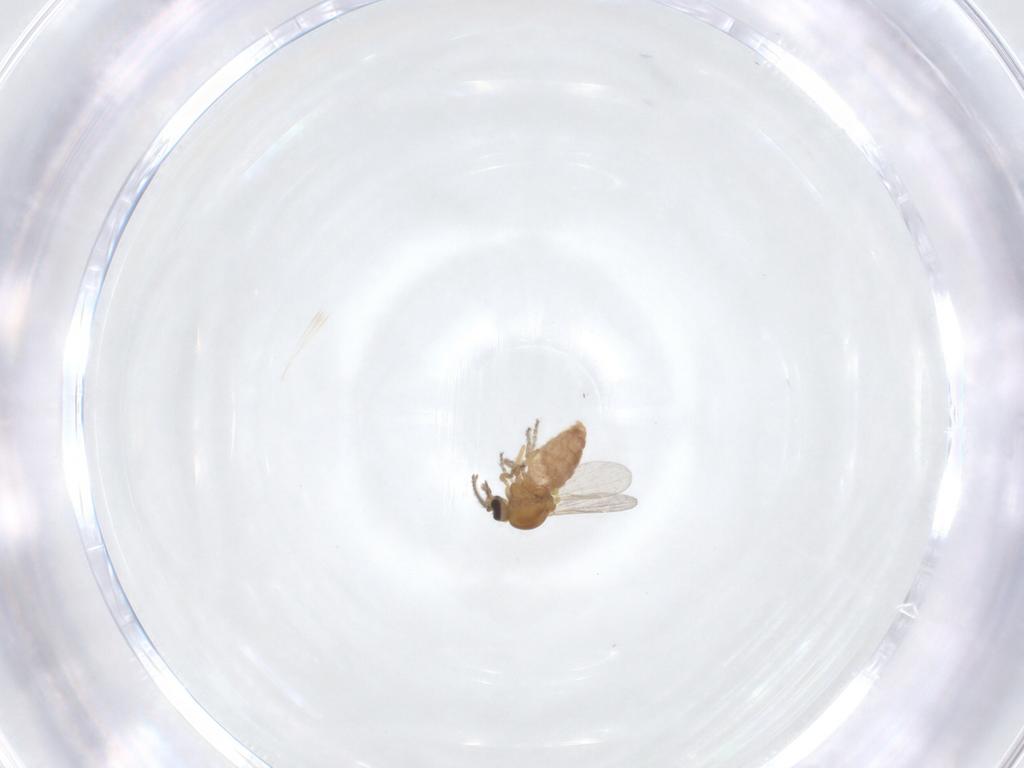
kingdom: Animalia
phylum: Arthropoda
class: Insecta
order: Diptera
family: Ceratopogonidae
